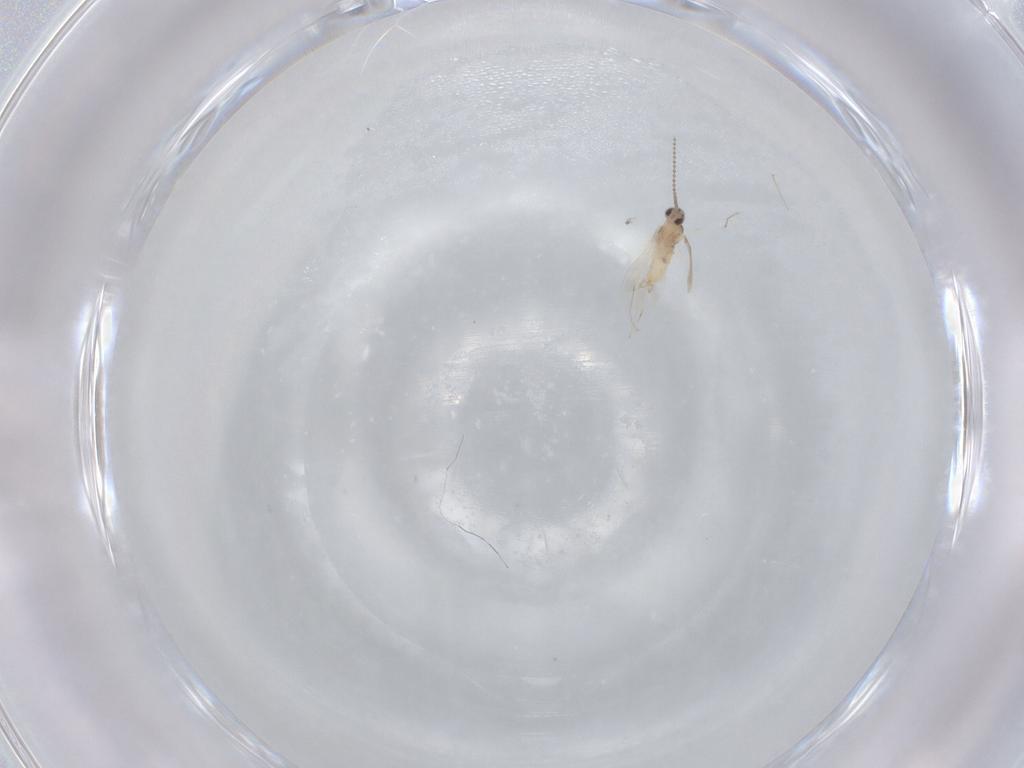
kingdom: Animalia
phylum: Arthropoda
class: Insecta
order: Diptera
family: Cecidomyiidae
